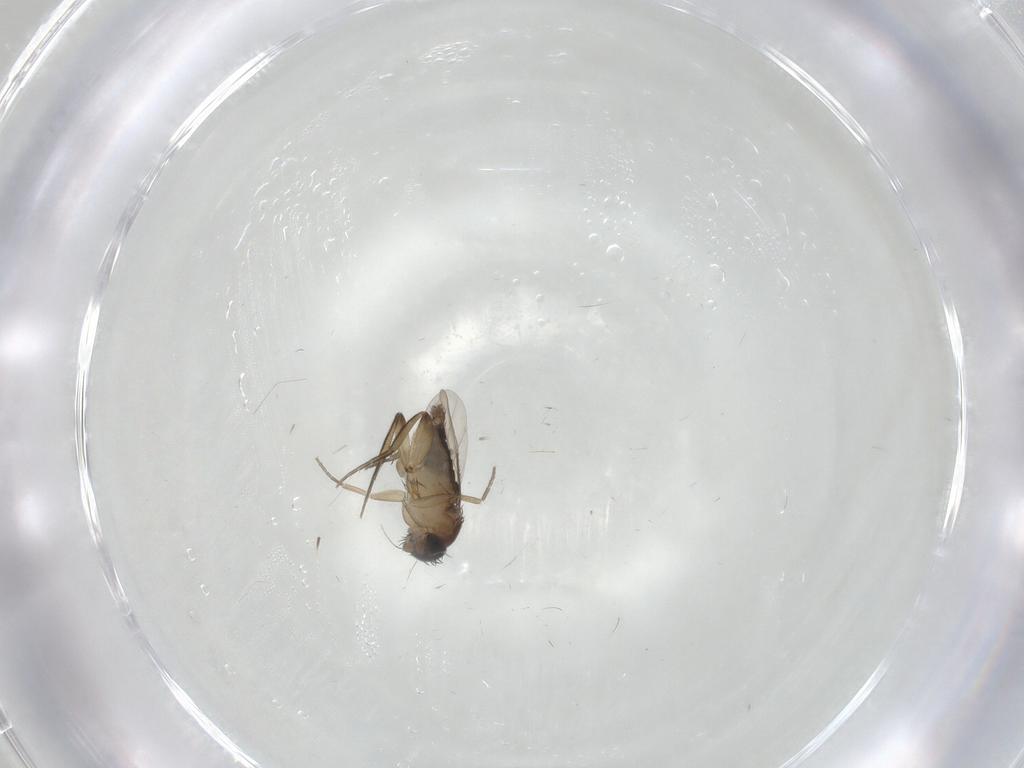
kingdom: Animalia
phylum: Arthropoda
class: Insecta
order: Diptera
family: Phoridae
